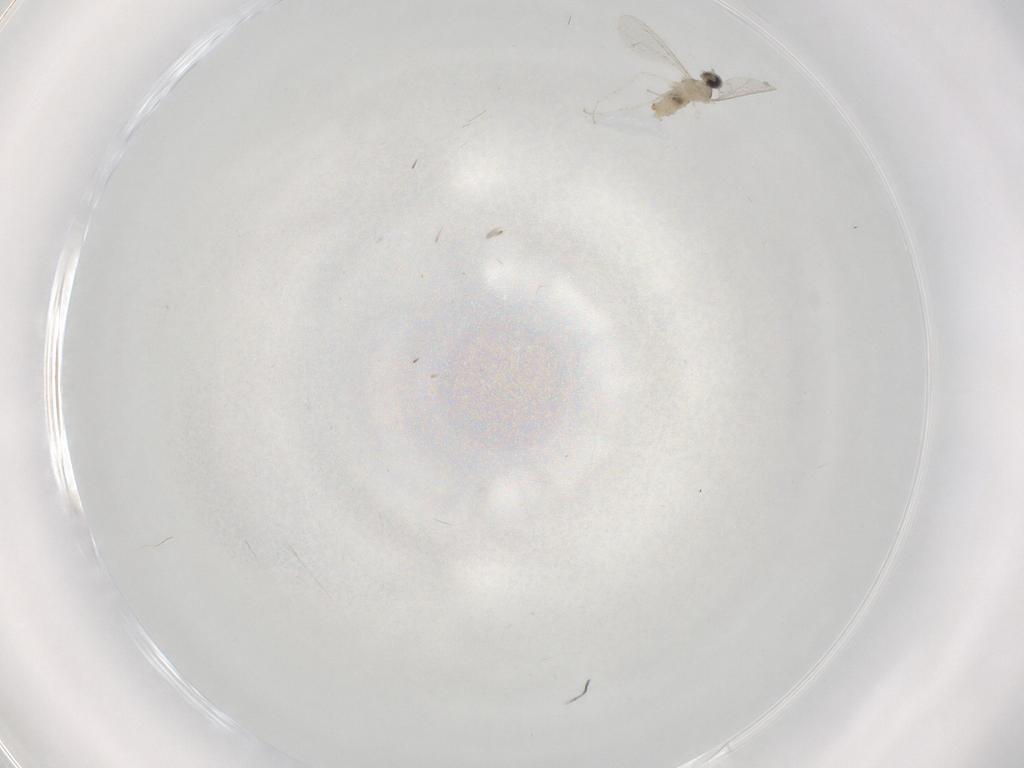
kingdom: Animalia
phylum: Arthropoda
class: Insecta
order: Diptera
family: Cecidomyiidae
